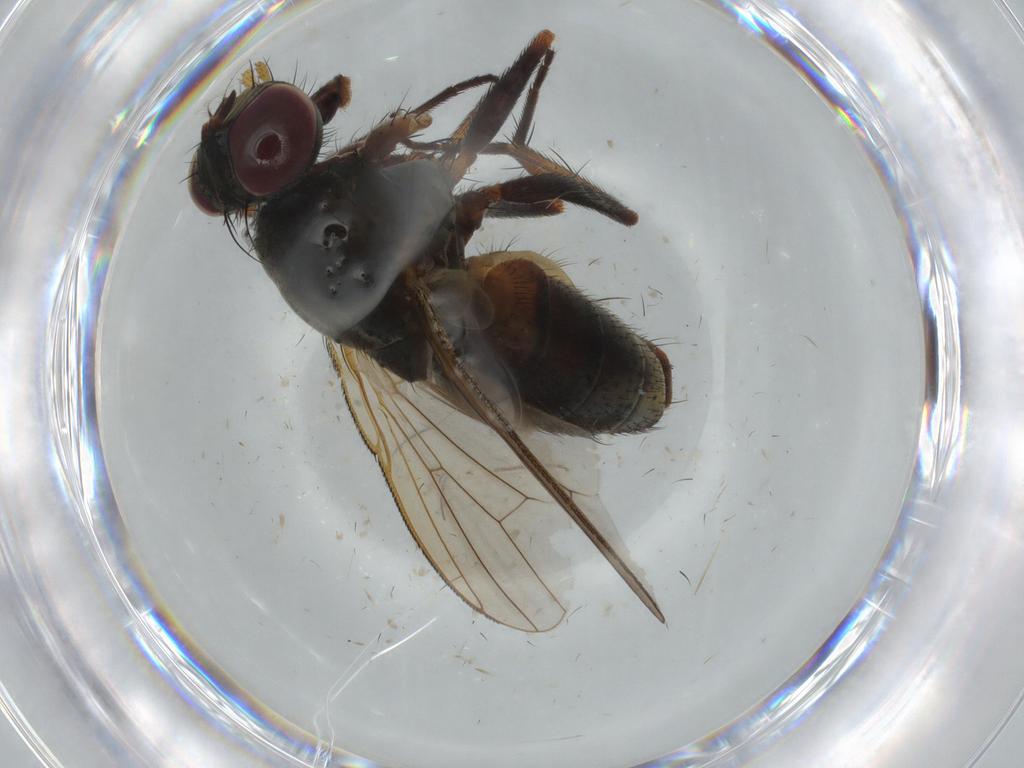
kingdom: Animalia
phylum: Arthropoda
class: Insecta
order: Diptera
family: Muscidae
